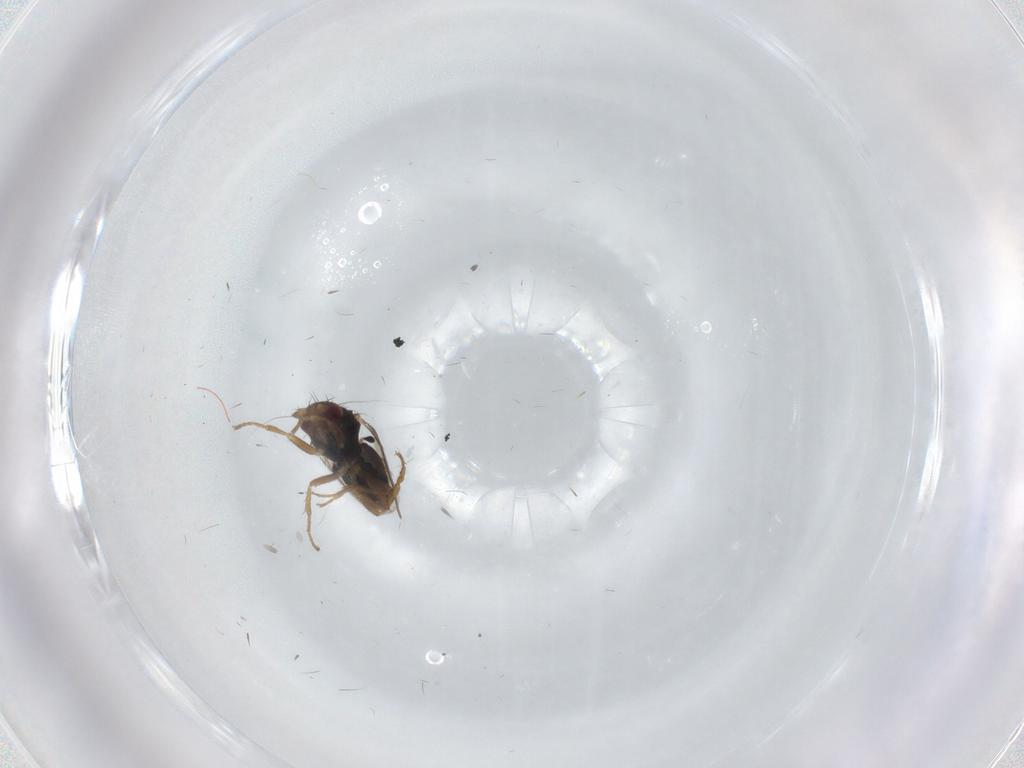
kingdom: Animalia
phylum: Arthropoda
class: Insecta
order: Diptera
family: Sphaeroceridae
